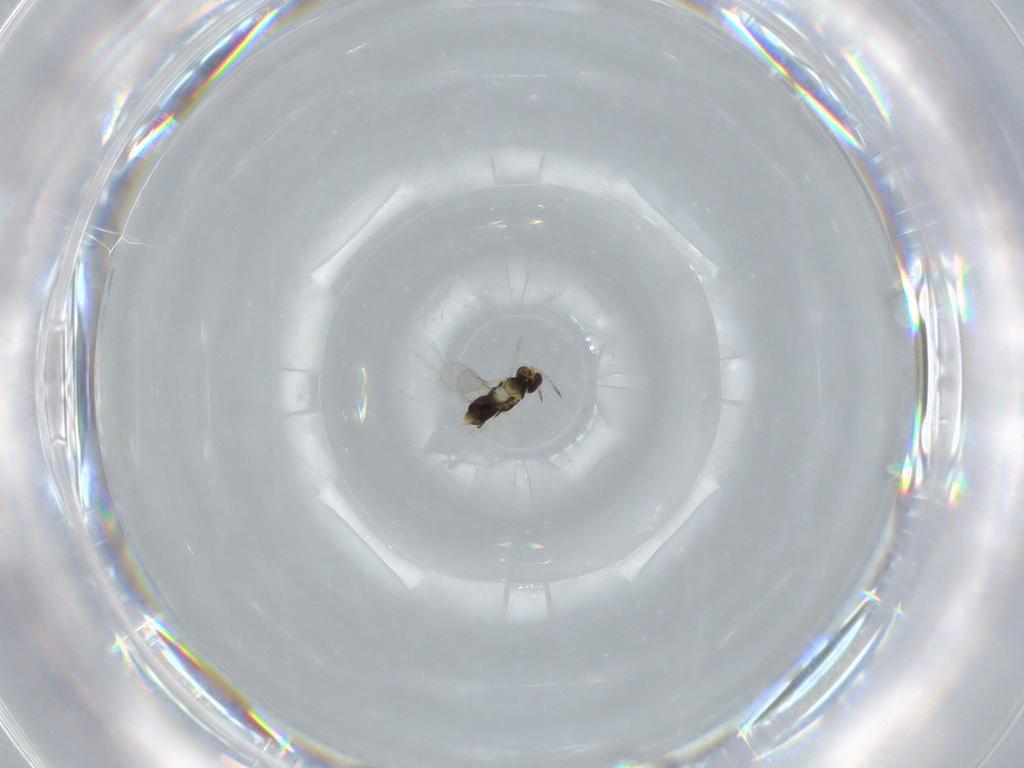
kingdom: Animalia
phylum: Arthropoda
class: Insecta
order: Hymenoptera
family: Aphelinidae
